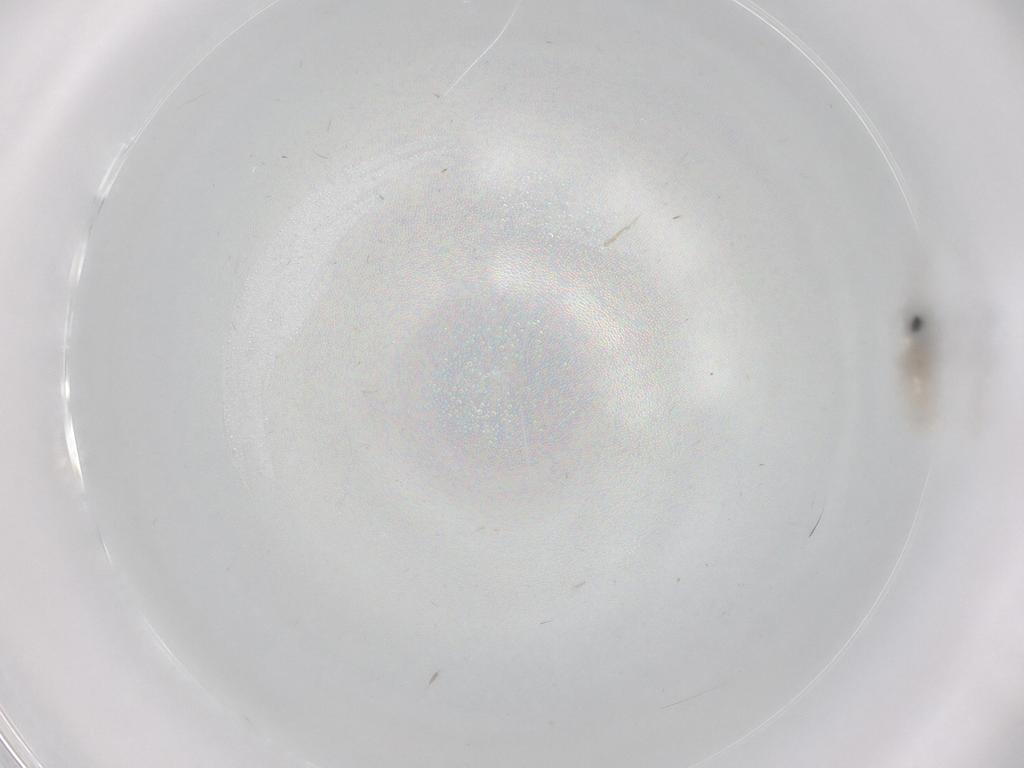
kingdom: Animalia
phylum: Arthropoda
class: Insecta
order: Diptera
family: Cecidomyiidae
